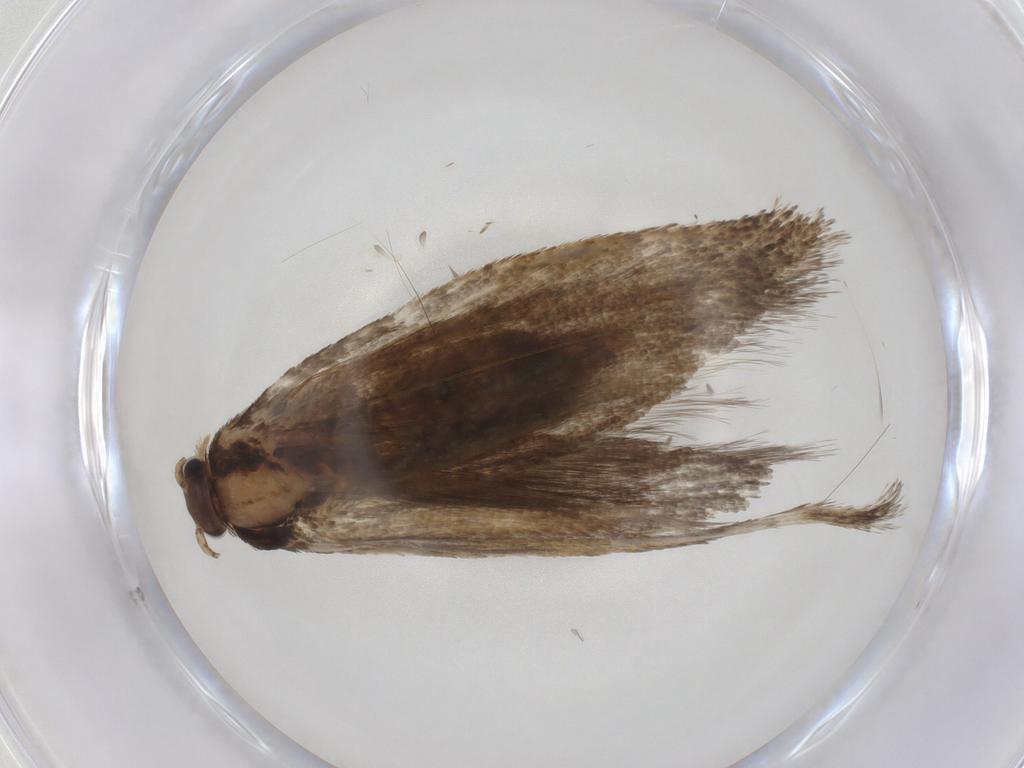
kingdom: Animalia
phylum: Arthropoda
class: Insecta
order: Lepidoptera
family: Crambidae
